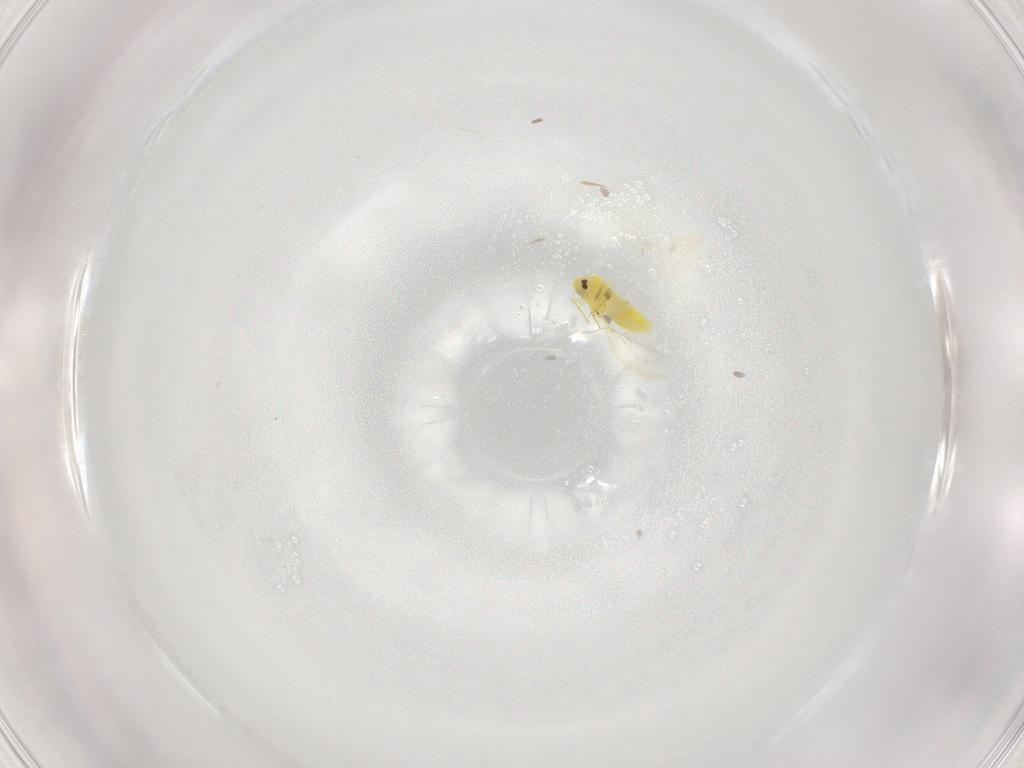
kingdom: Animalia
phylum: Arthropoda
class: Insecta
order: Hemiptera
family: Aleyrodidae
